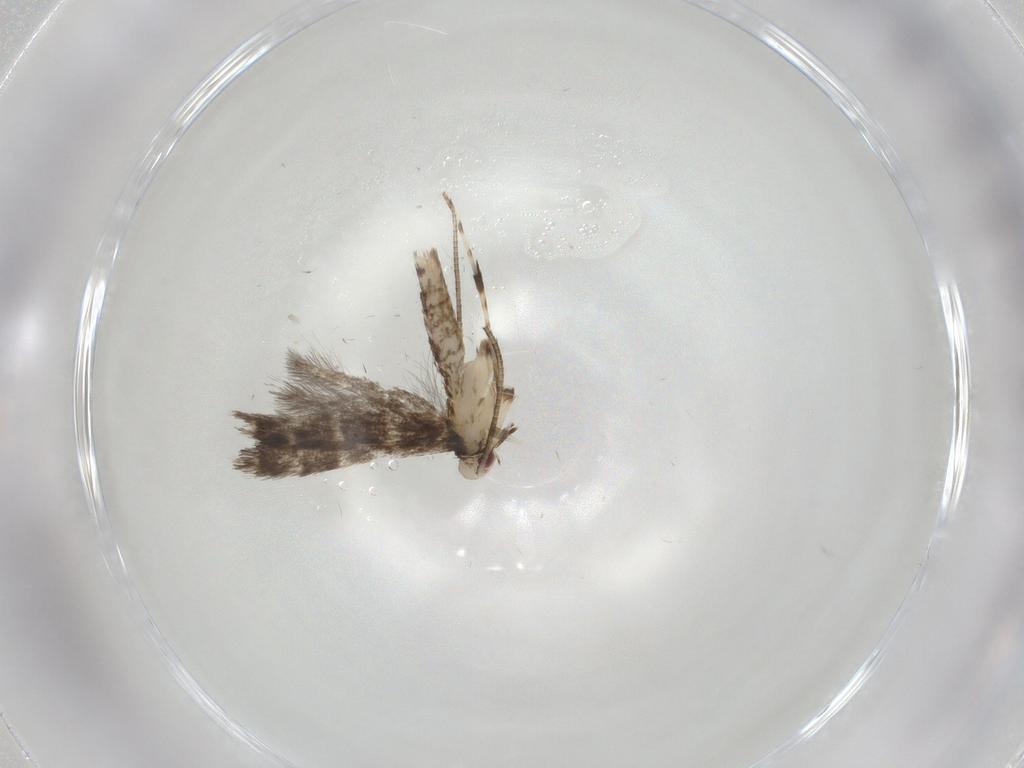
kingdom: Animalia
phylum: Arthropoda
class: Insecta
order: Lepidoptera
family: Gracillariidae
